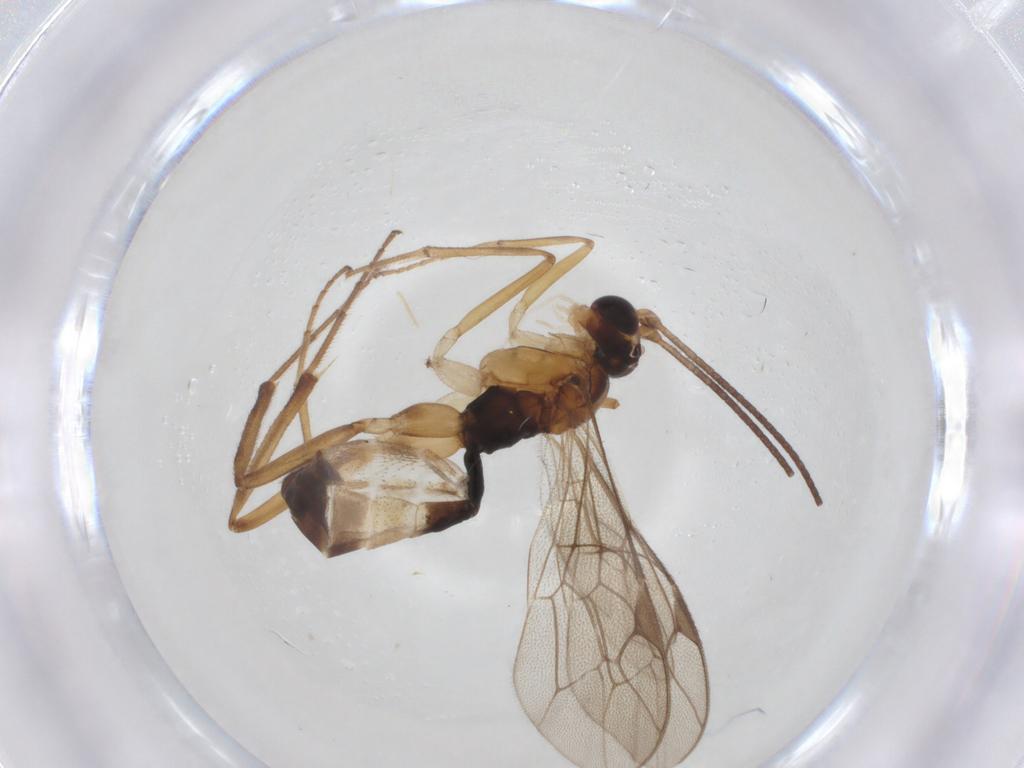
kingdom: Animalia
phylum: Arthropoda
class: Insecta
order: Hymenoptera
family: Ichneumonidae
